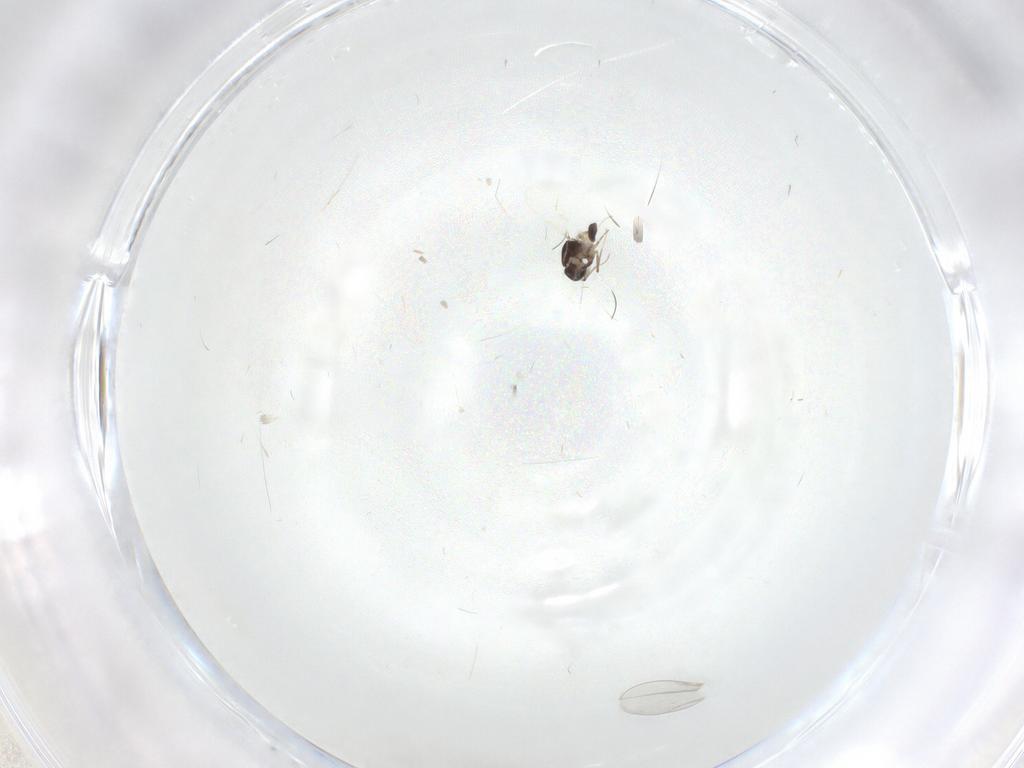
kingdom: Animalia
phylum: Arthropoda
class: Insecta
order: Diptera
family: Ceratopogonidae
